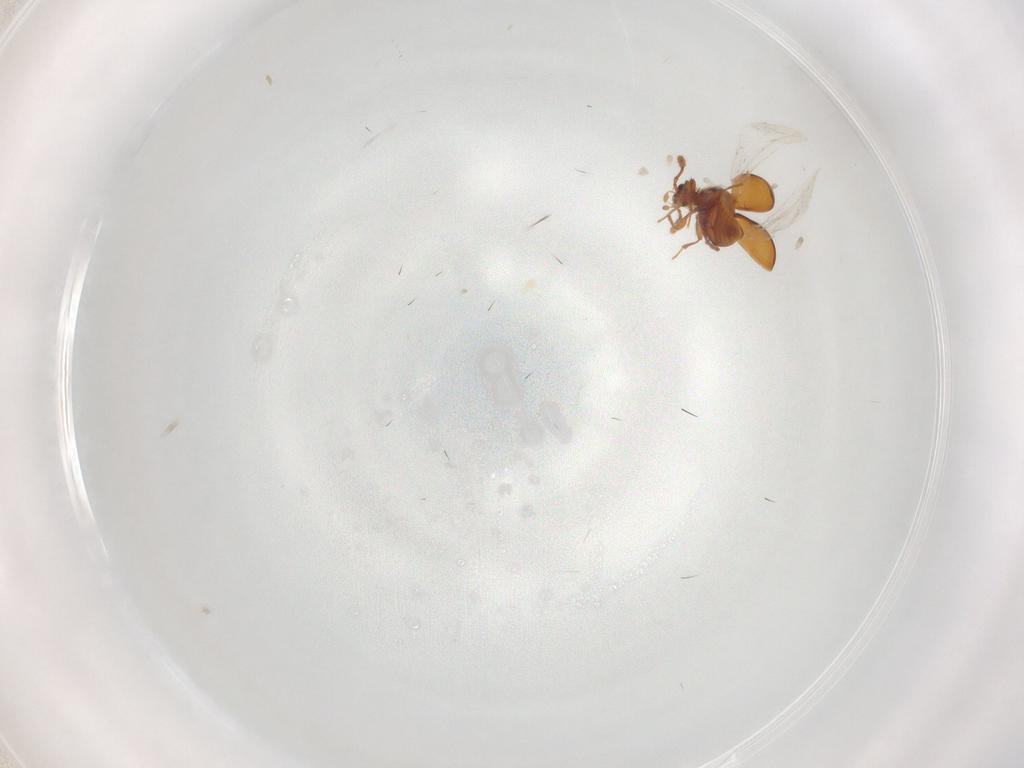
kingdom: Animalia
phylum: Arthropoda
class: Insecta
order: Coleoptera
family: Staphylinidae
